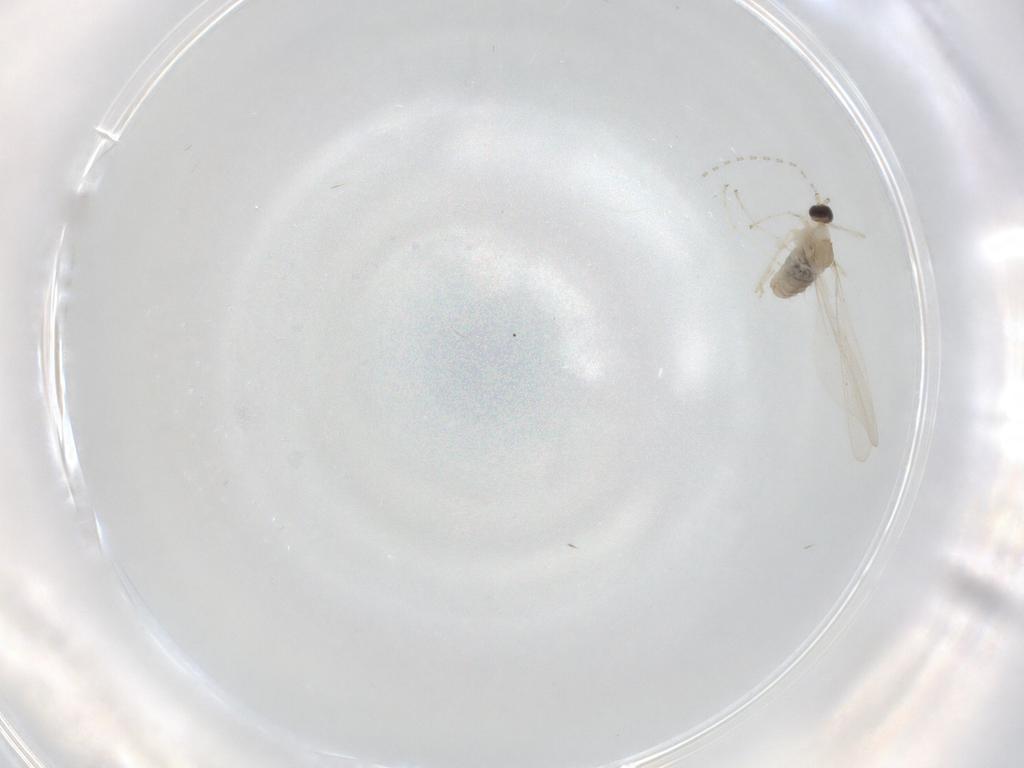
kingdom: Animalia
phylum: Arthropoda
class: Insecta
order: Diptera
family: Cecidomyiidae
